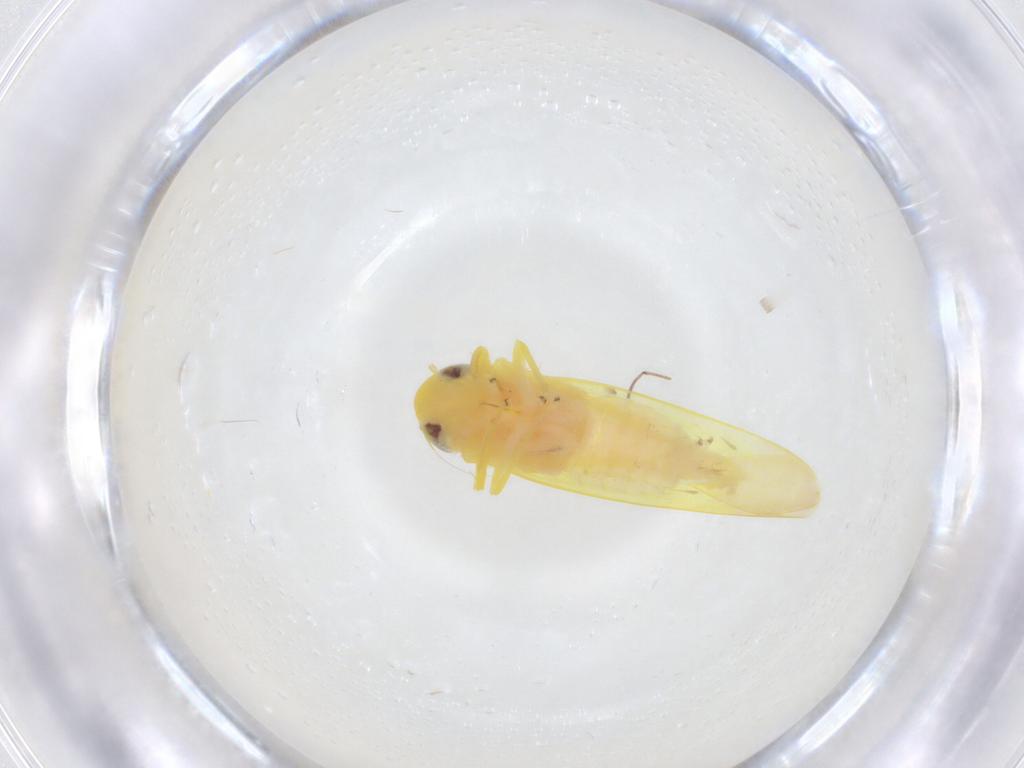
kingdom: Animalia
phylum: Arthropoda
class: Insecta
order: Hemiptera
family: Cicadellidae
